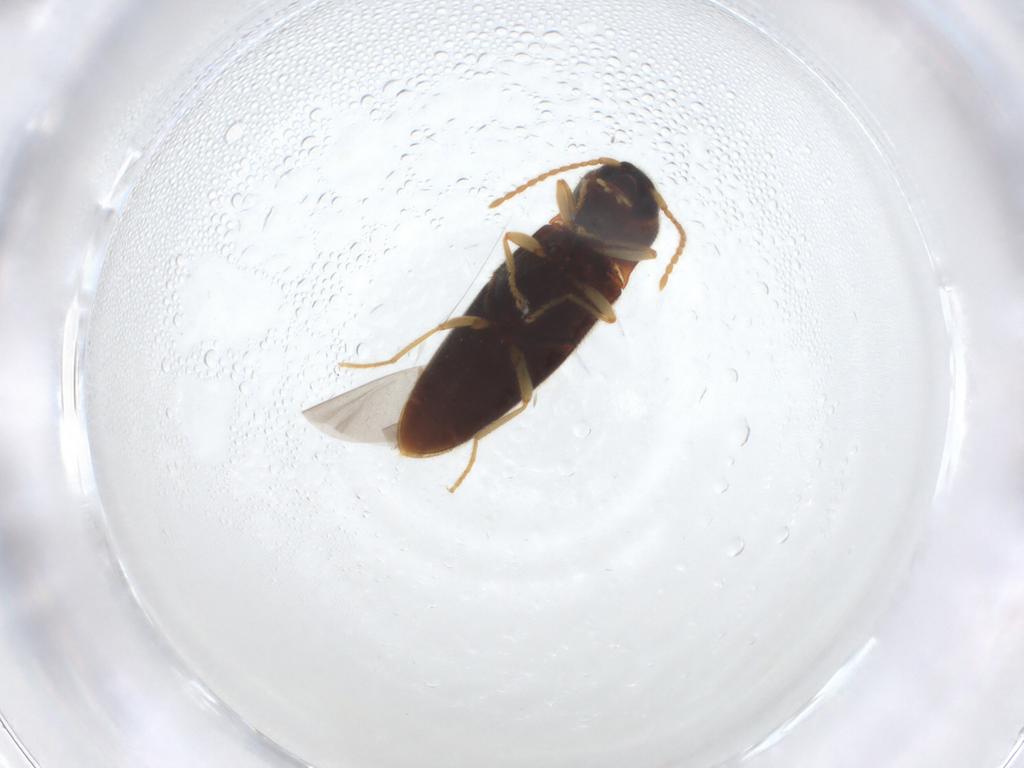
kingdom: Animalia
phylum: Arthropoda
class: Insecta
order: Coleoptera
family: Elateridae
